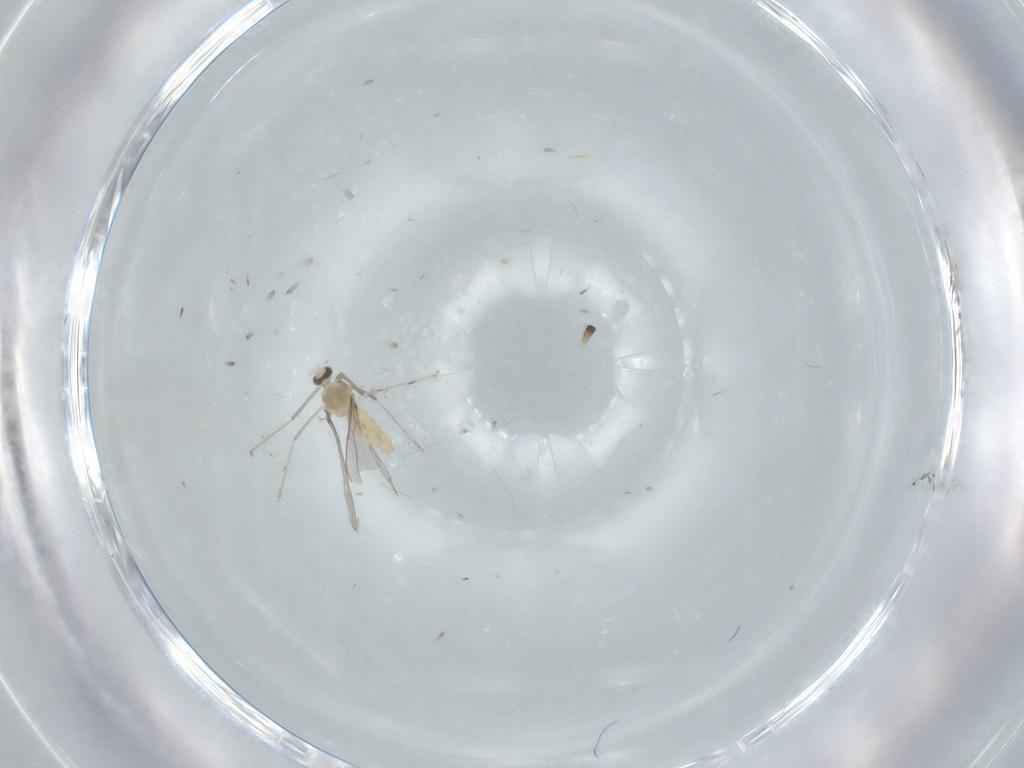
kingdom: Animalia
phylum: Arthropoda
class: Insecta
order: Diptera
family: Cecidomyiidae
